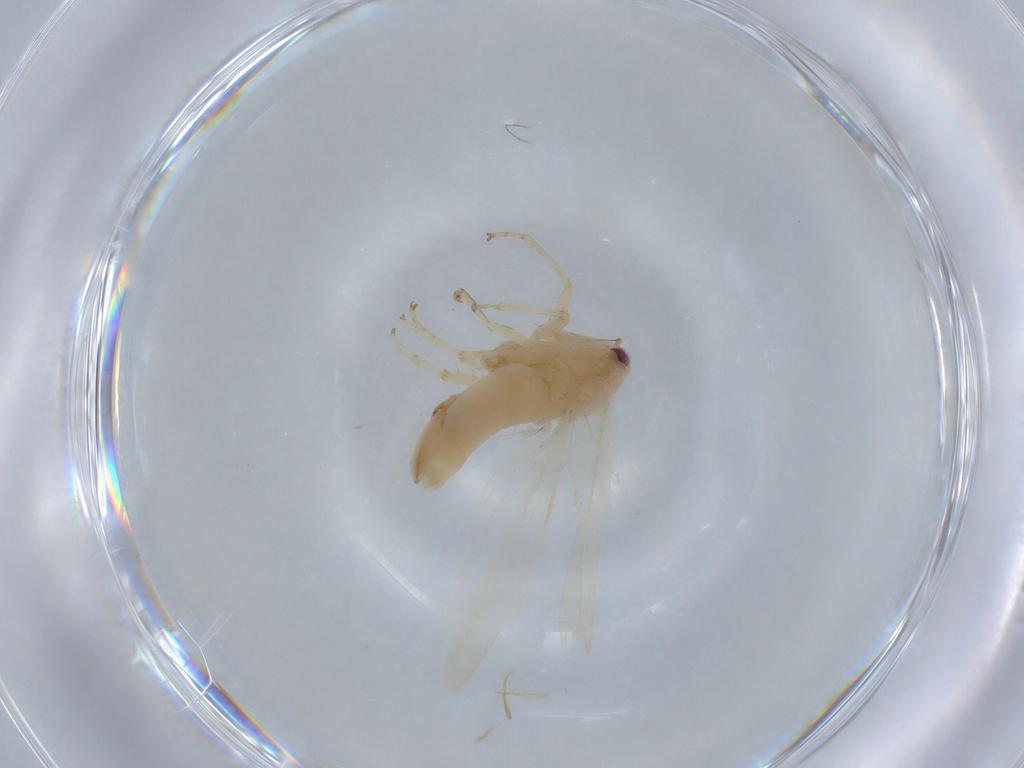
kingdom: Animalia
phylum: Arthropoda
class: Insecta
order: Hemiptera
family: Cicadellidae
